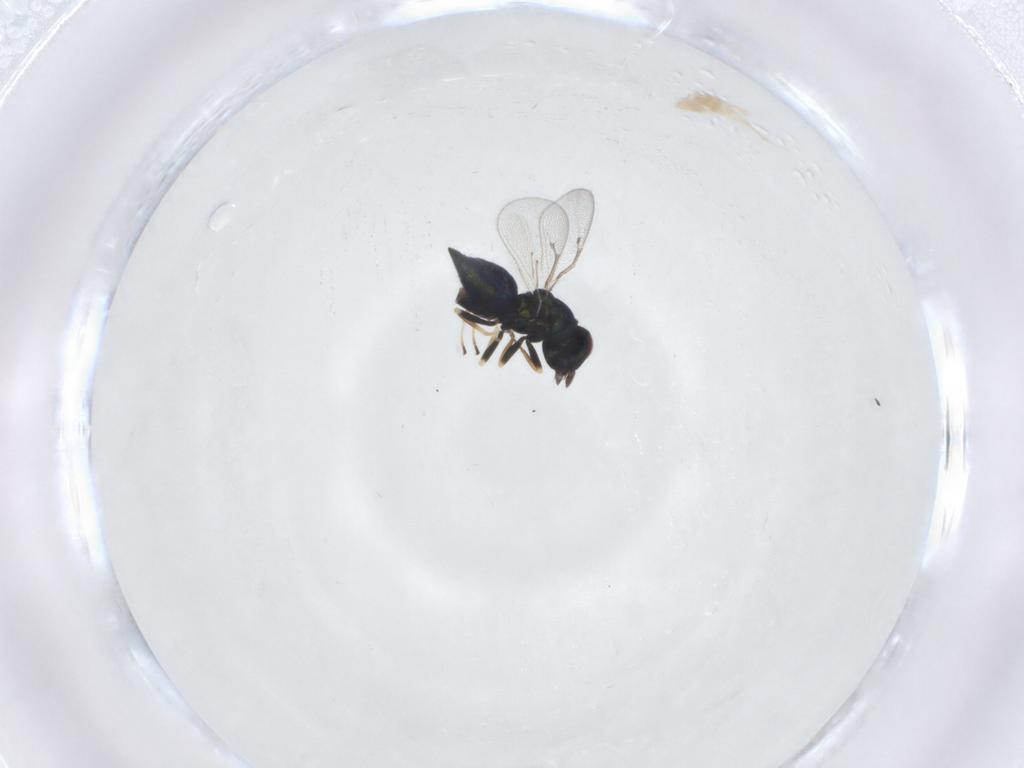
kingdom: Animalia
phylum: Arthropoda
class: Insecta
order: Hymenoptera
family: Eulophidae
